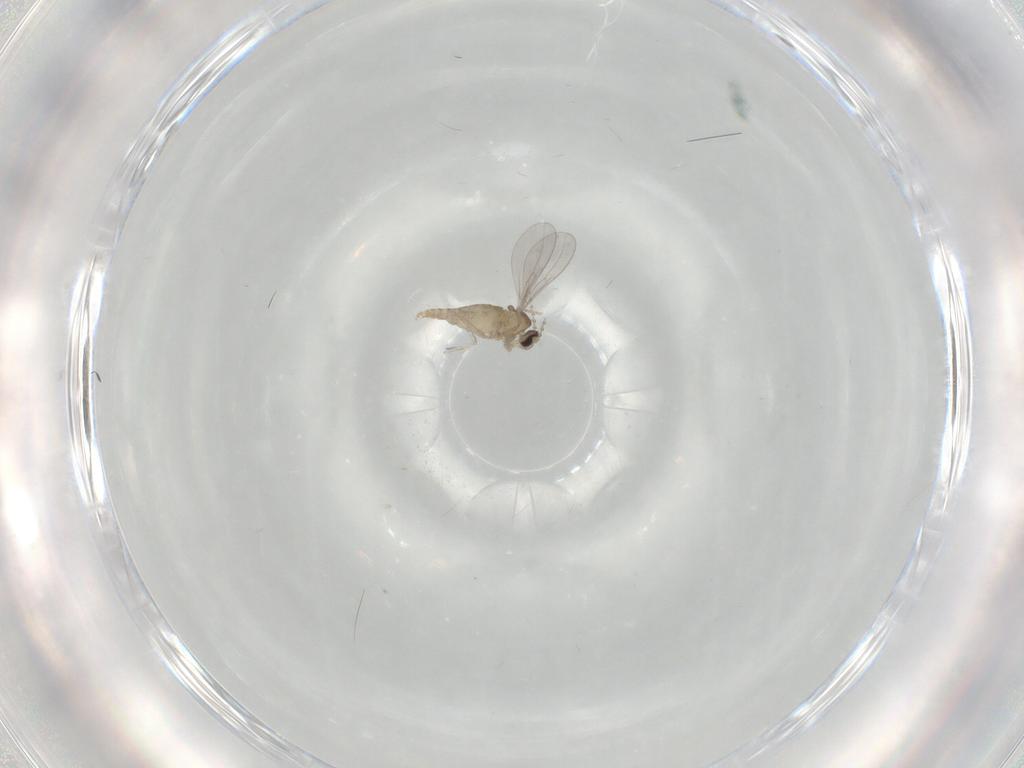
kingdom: Animalia
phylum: Arthropoda
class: Insecta
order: Diptera
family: Cecidomyiidae
